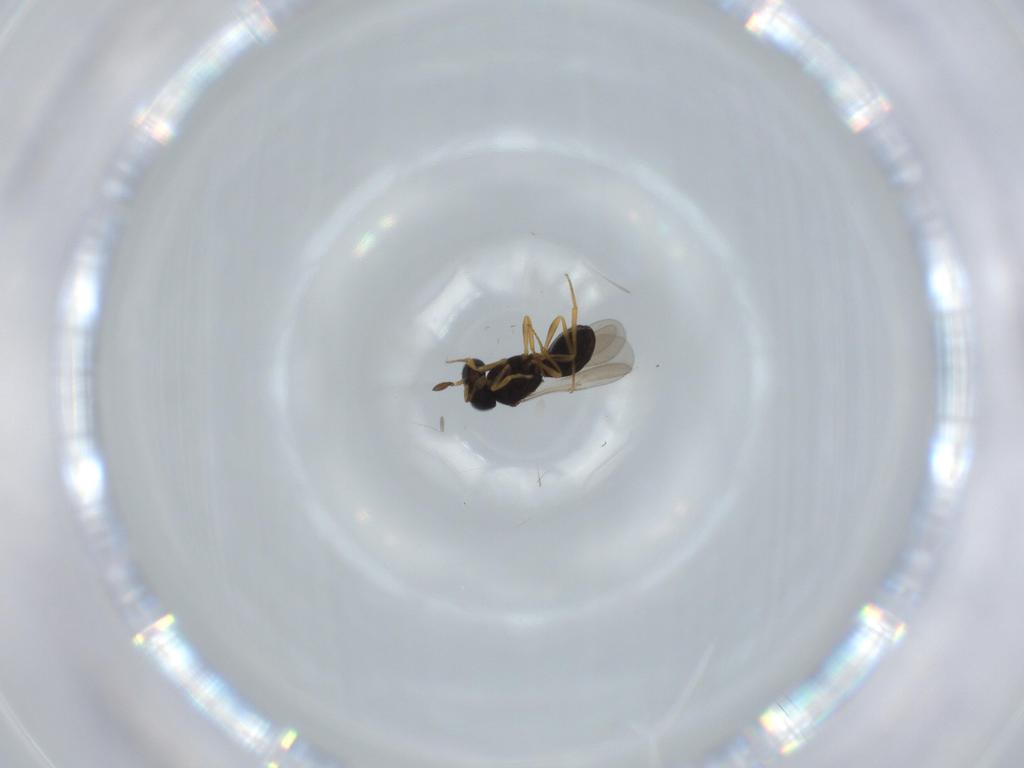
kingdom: Animalia
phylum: Arthropoda
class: Insecta
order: Hymenoptera
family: Scelionidae
